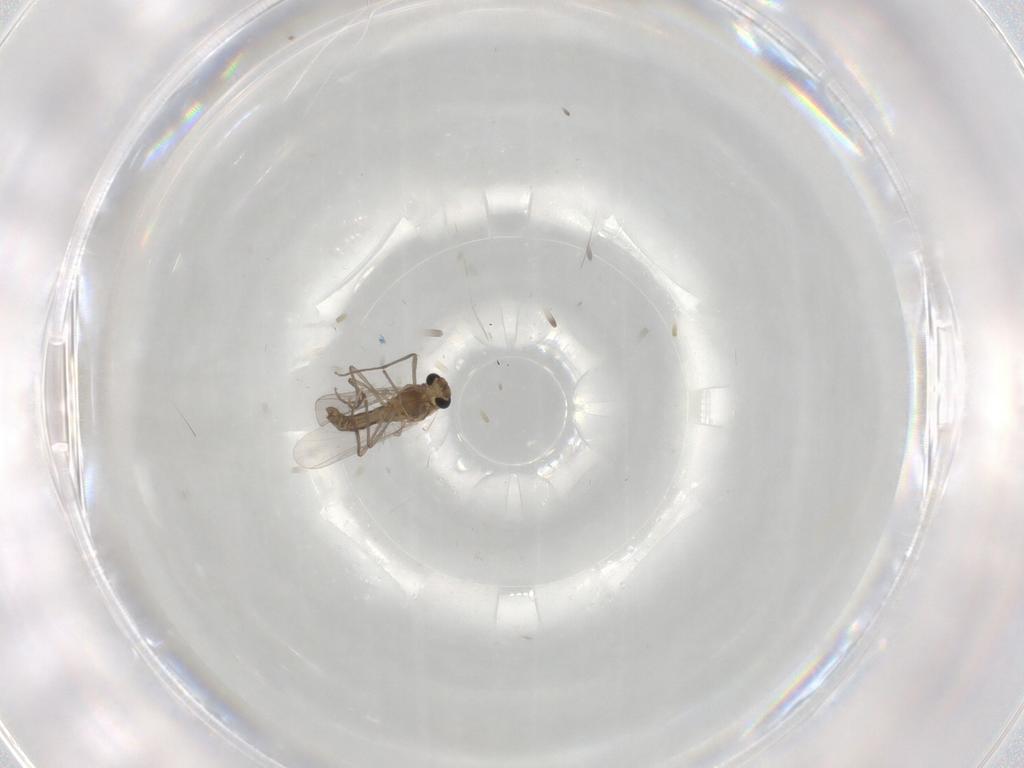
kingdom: Animalia
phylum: Arthropoda
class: Insecta
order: Diptera
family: Chironomidae
